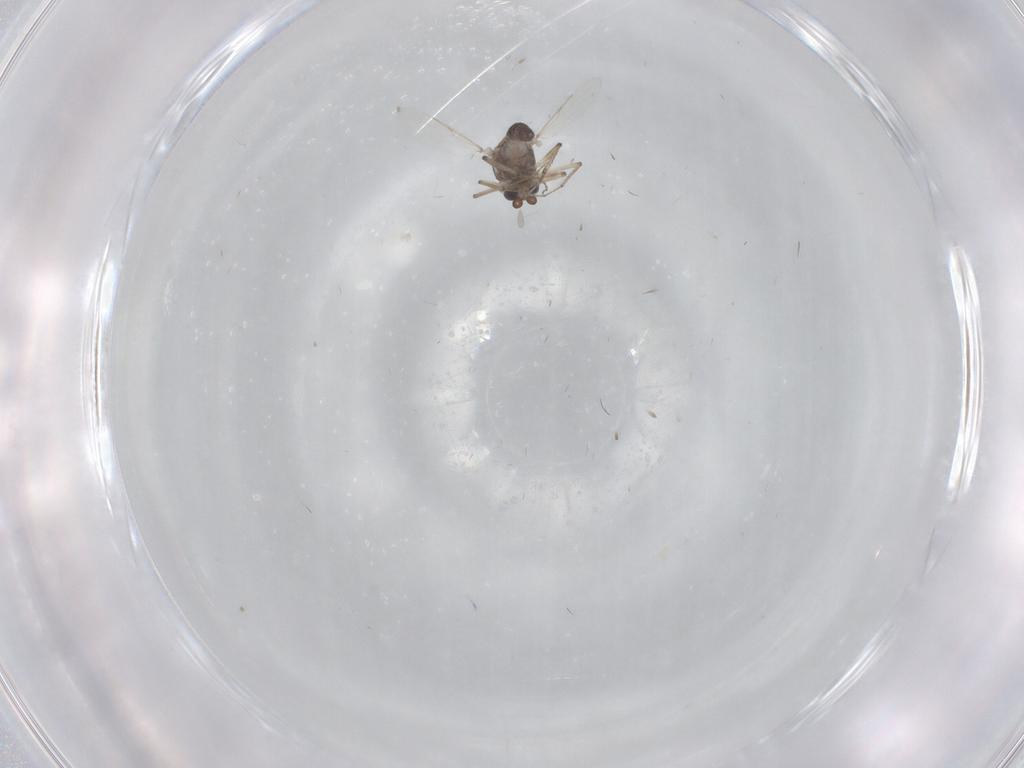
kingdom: Animalia
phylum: Arthropoda
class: Insecta
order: Diptera
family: Ceratopogonidae
